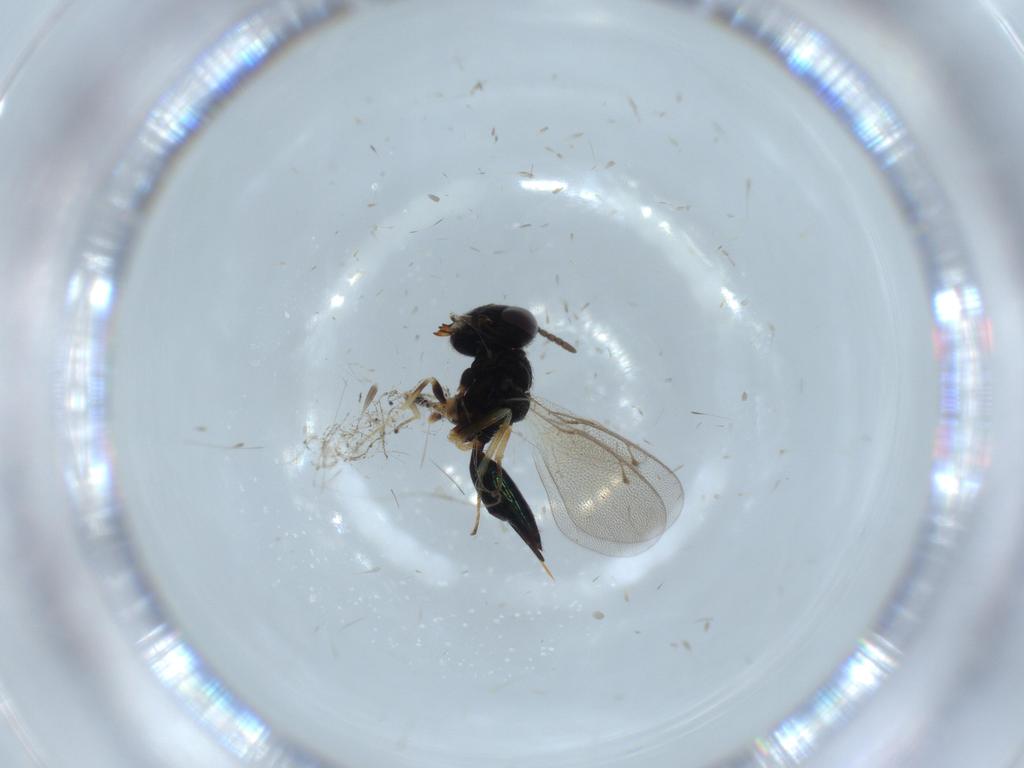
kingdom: Animalia
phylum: Arthropoda
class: Insecta
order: Hymenoptera
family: Pteromalidae
